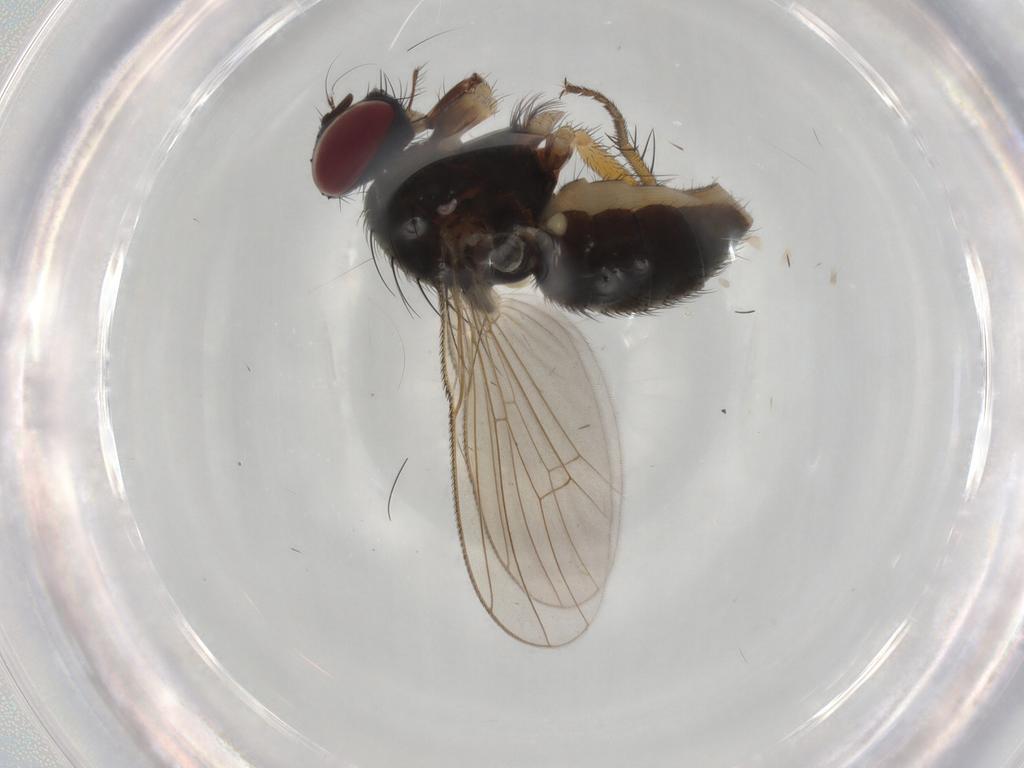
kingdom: Animalia
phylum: Arthropoda
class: Insecta
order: Diptera
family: Muscidae
